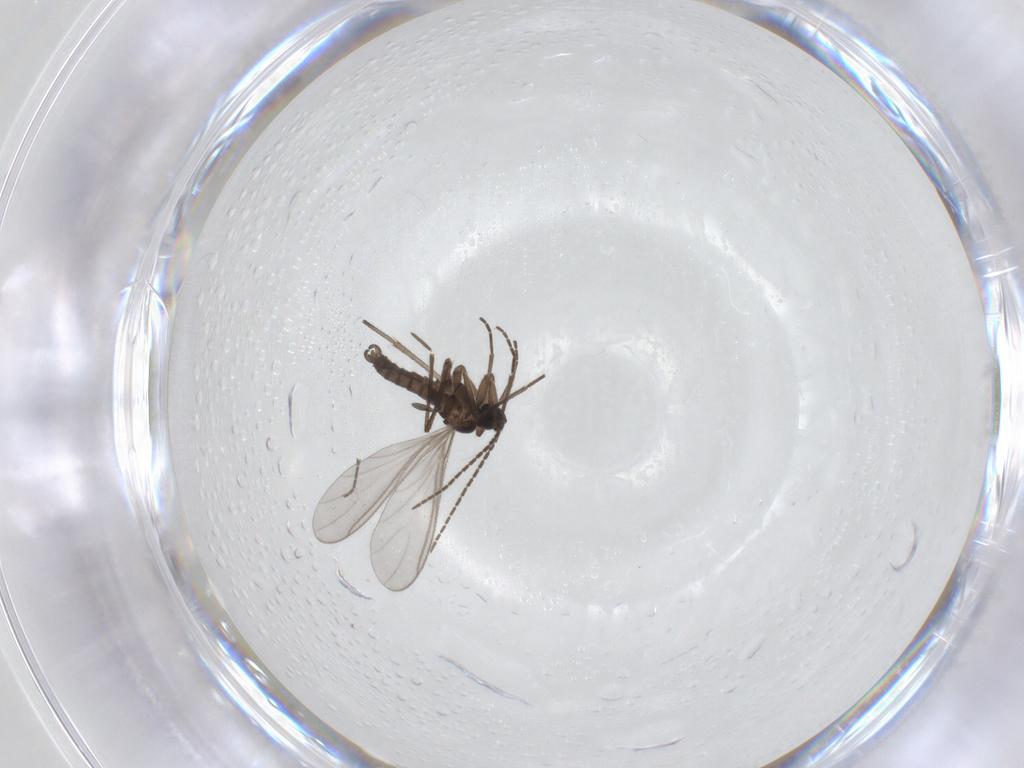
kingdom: Animalia
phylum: Arthropoda
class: Insecta
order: Diptera
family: Sciaridae
